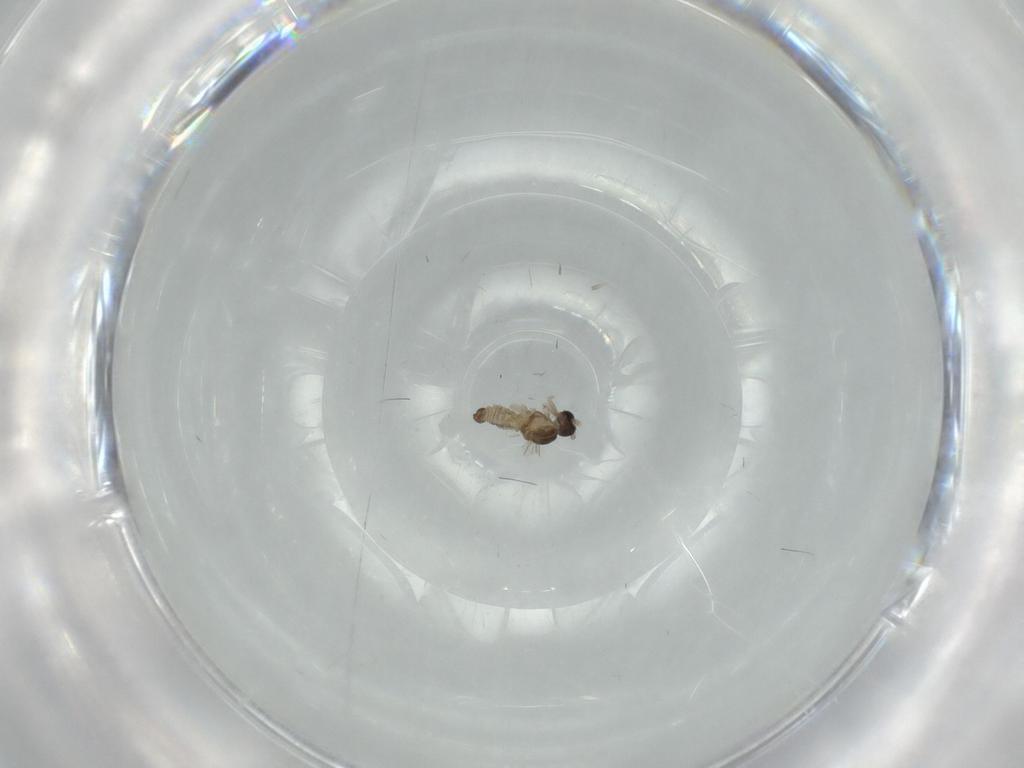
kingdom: Animalia
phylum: Arthropoda
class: Insecta
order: Diptera
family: Cecidomyiidae
